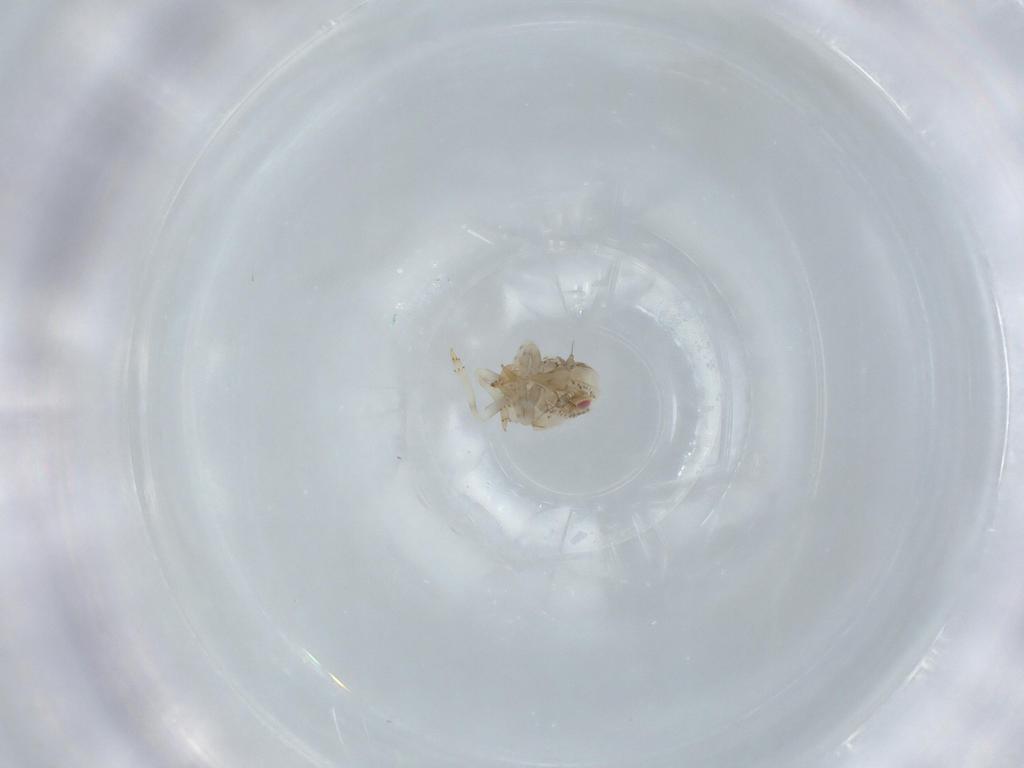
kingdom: Animalia
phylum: Arthropoda
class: Insecta
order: Hemiptera
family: Acanaloniidae
